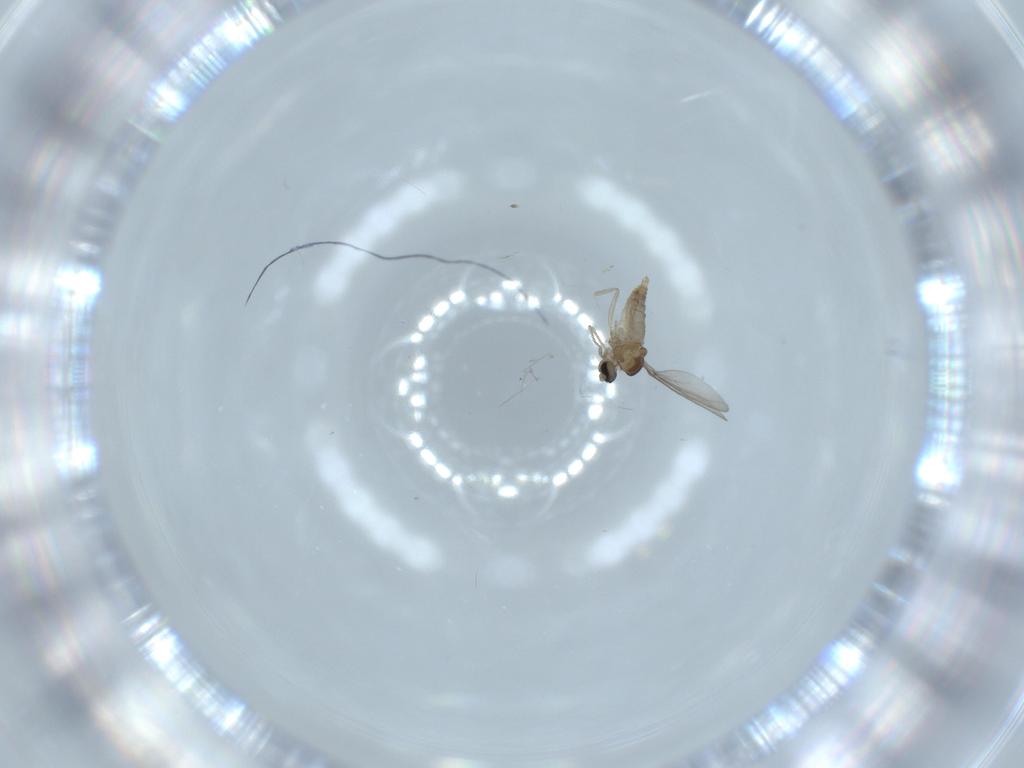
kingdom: Animalia
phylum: Arthropoda
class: Insecta
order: Diptera
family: Cecidomyiidae
